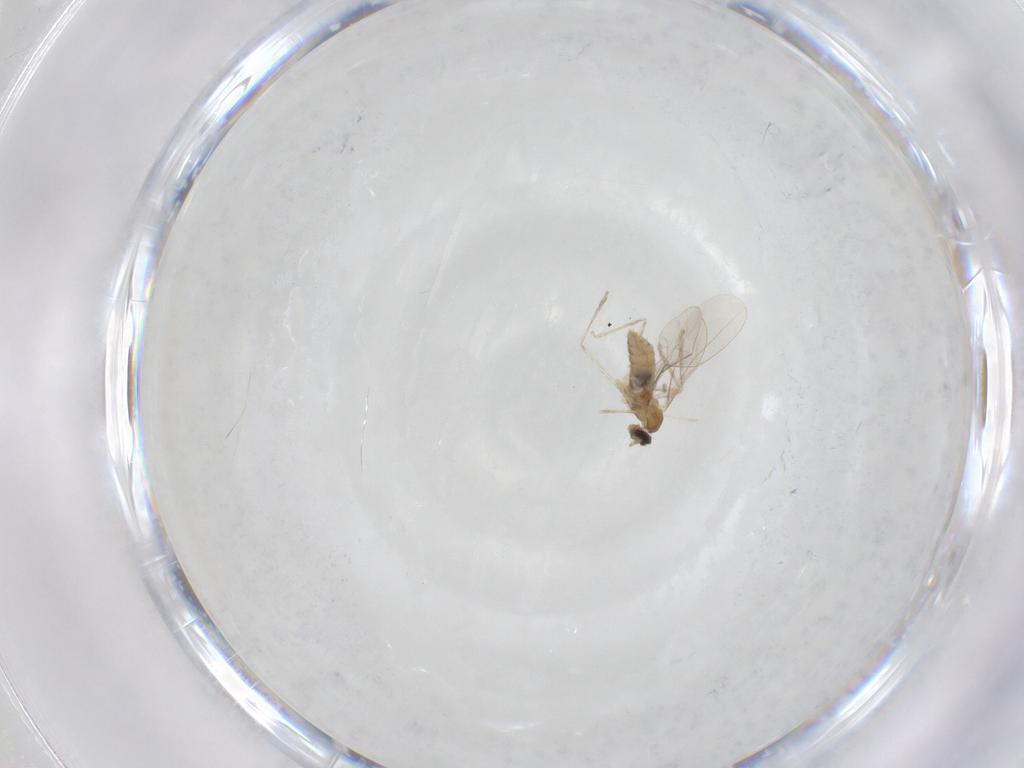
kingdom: Animalia
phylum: Arthropoda
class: Insecta
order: Diptera
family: Cecidomyiidae
